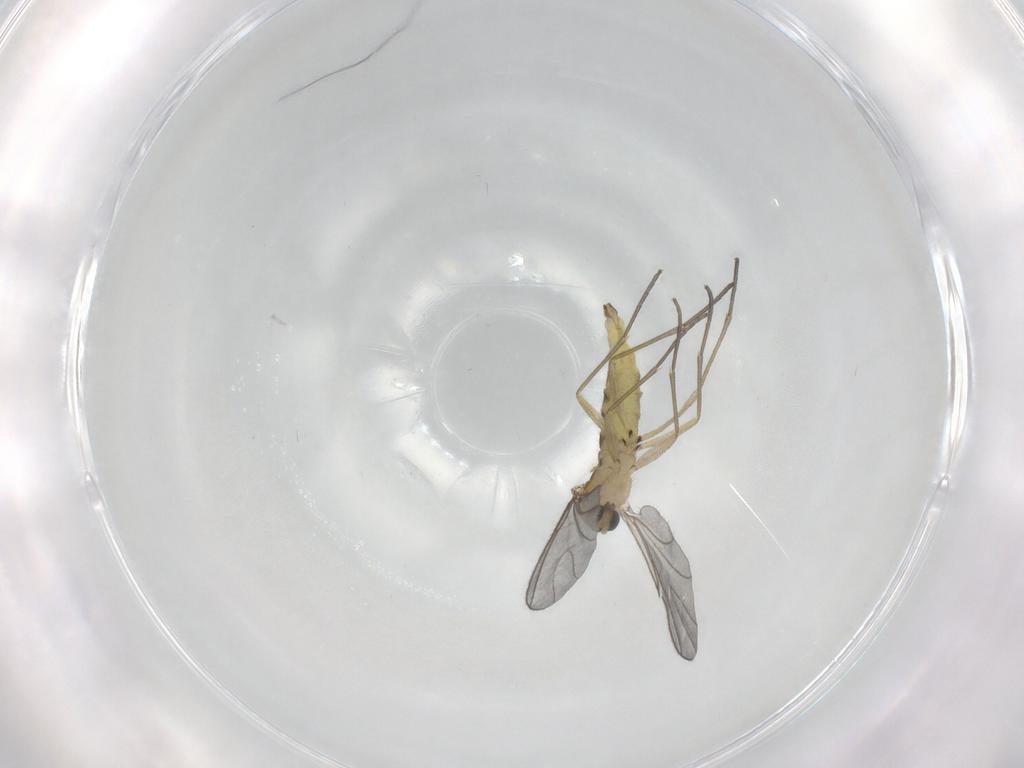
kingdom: Animalia
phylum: Arthropoda
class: Insecta
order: Diptera
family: Sciaridae
